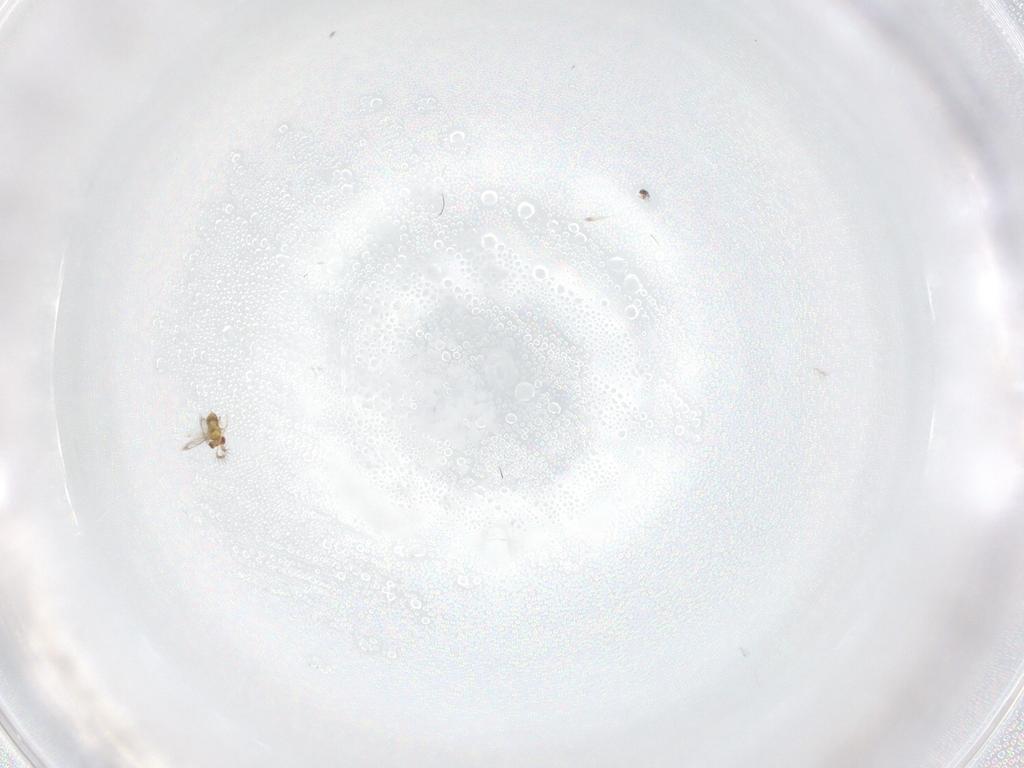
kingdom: Animalia
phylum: Arthropoda
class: Insecta
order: Hymenoptera
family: Trichogrammatidae
